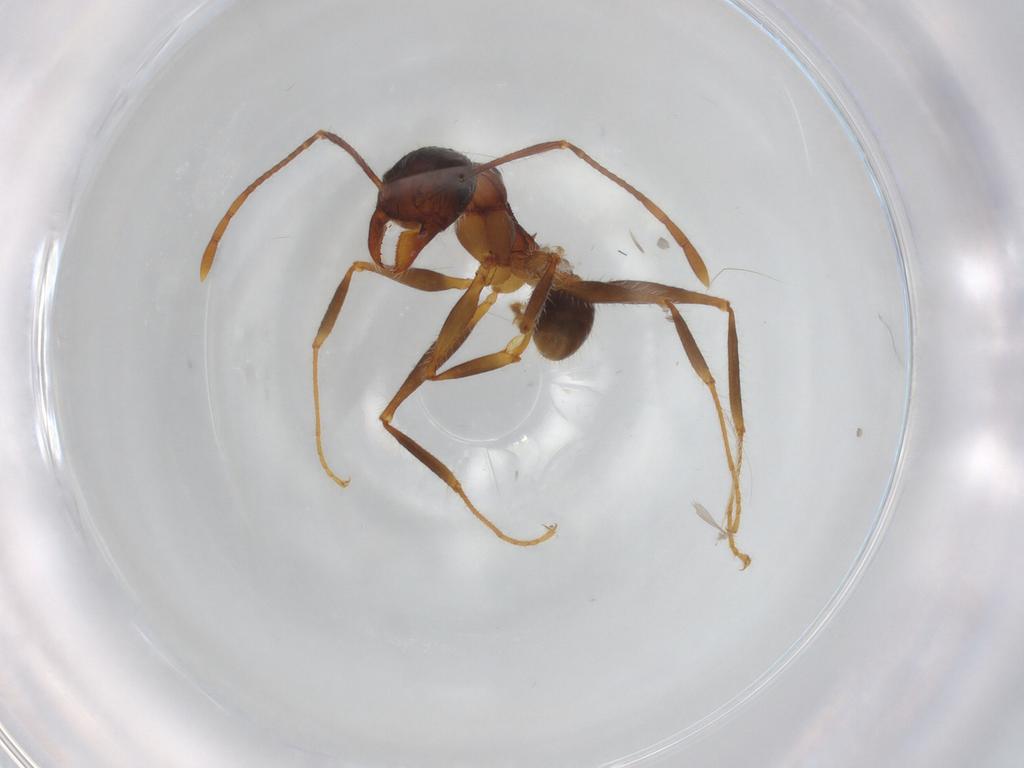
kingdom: Animalia
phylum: Arthropoda
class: Insecta
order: Hymenoptera
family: Formicidae
